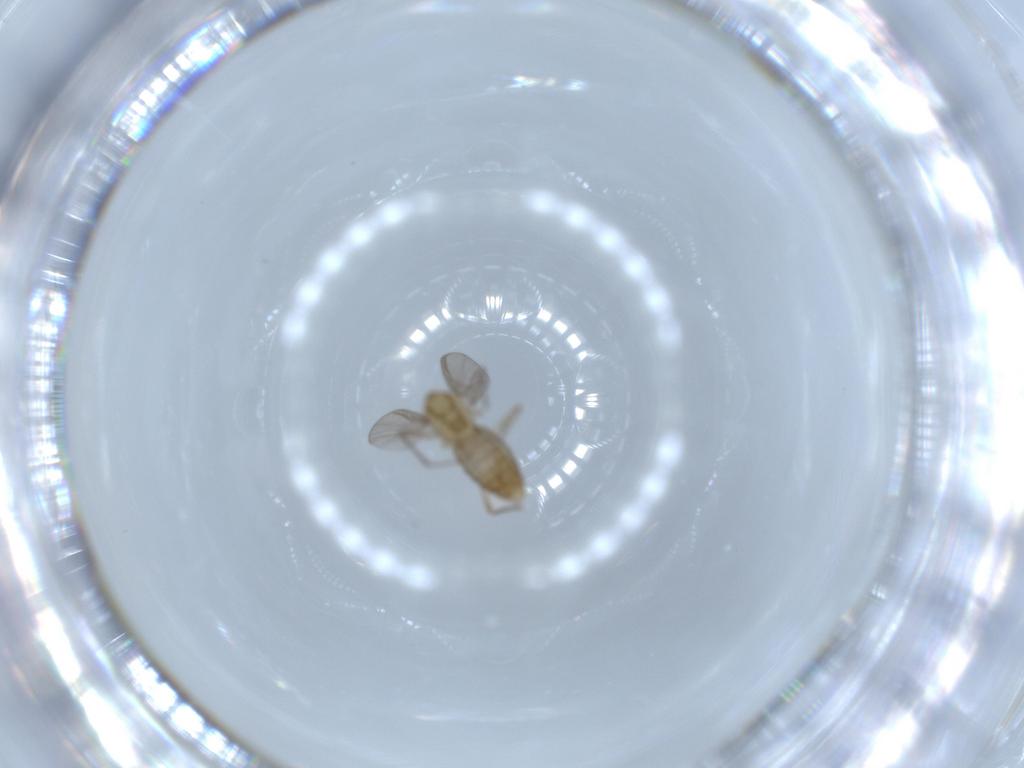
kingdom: Animalia
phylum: Arthropoda
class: Insecta
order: Diptera
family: Chironomidae
